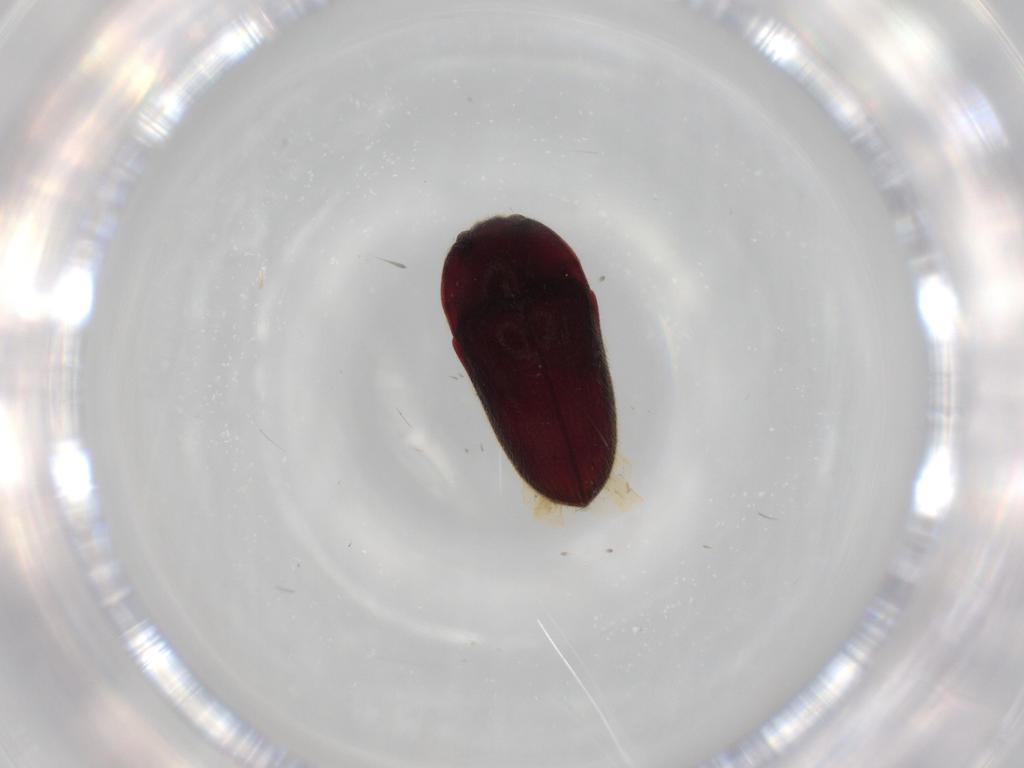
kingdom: Animalia
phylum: Arthropoda
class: Insecta
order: Coleoptera
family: Throscidae
